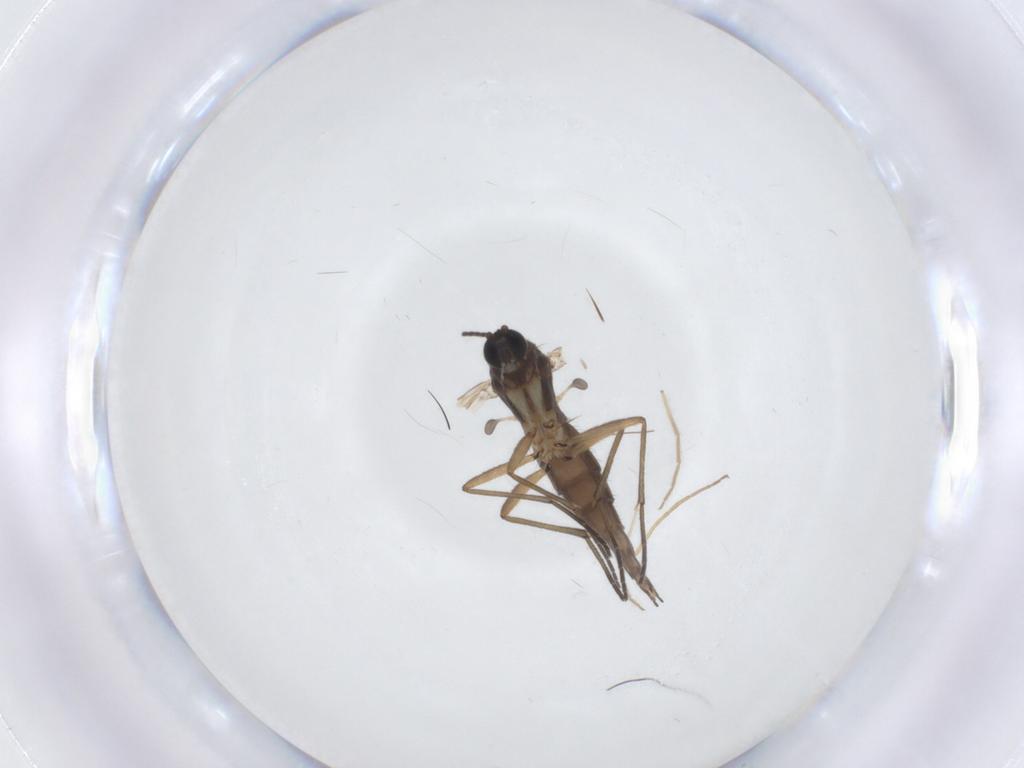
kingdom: Animalia
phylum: Arthropoda
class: Insecta
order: Diptera
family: Sciaridae
